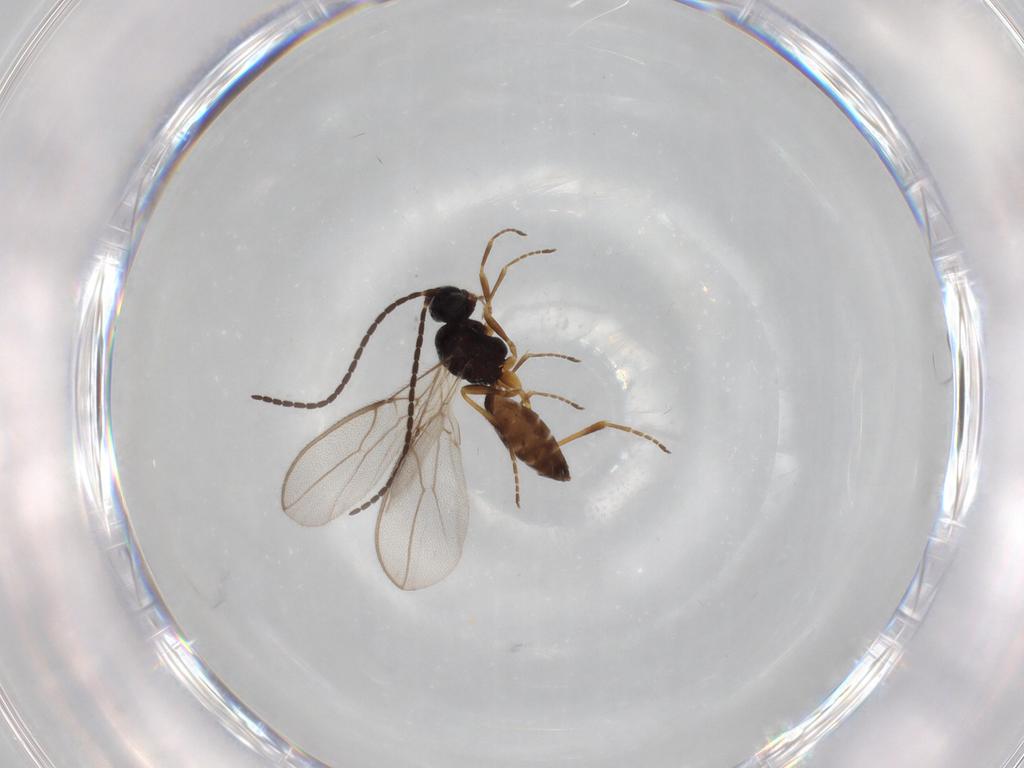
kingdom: Animalia
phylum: Arthropoda
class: Insecta
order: Hymenoptera
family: Braconidae
